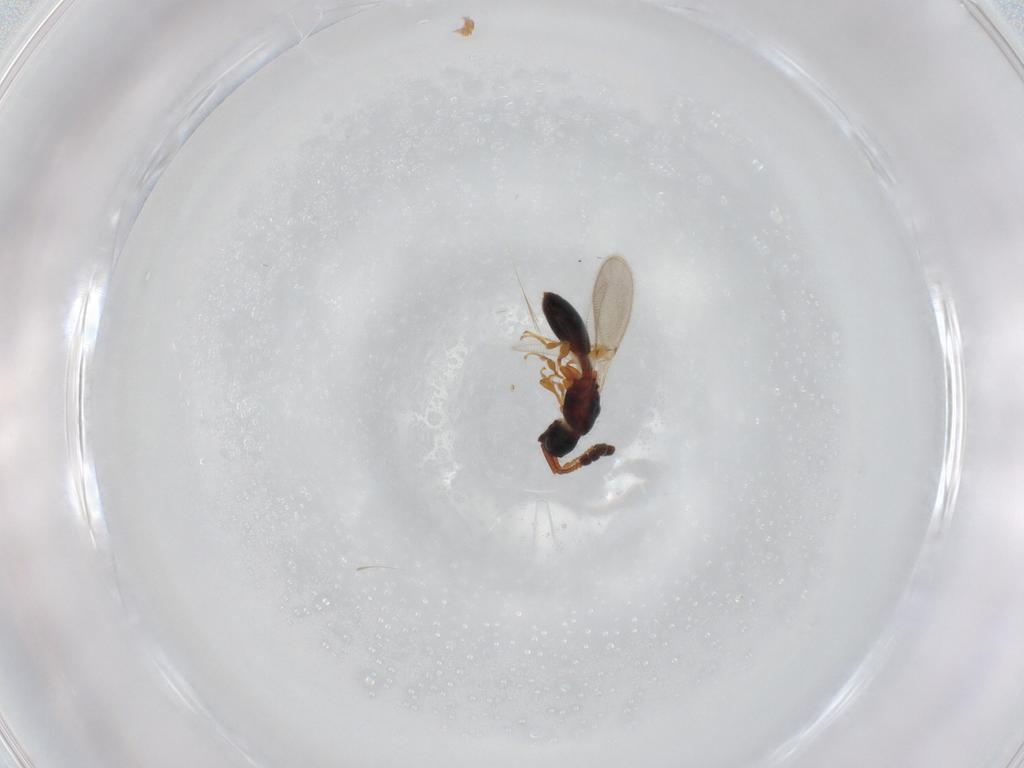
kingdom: Animalia
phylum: Arthropoda
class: Insecta
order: Hymenoptera
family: Diapriidae
